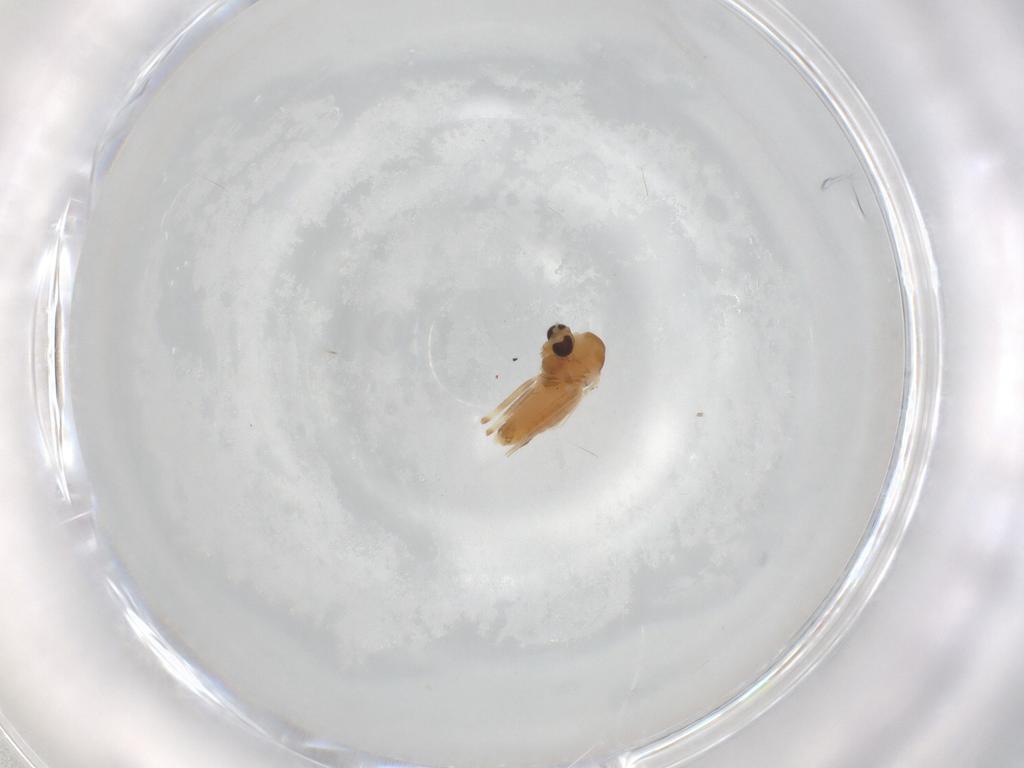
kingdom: Animalia
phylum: Arthropoda
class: Insecta
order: Diptera
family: Chironomidae
